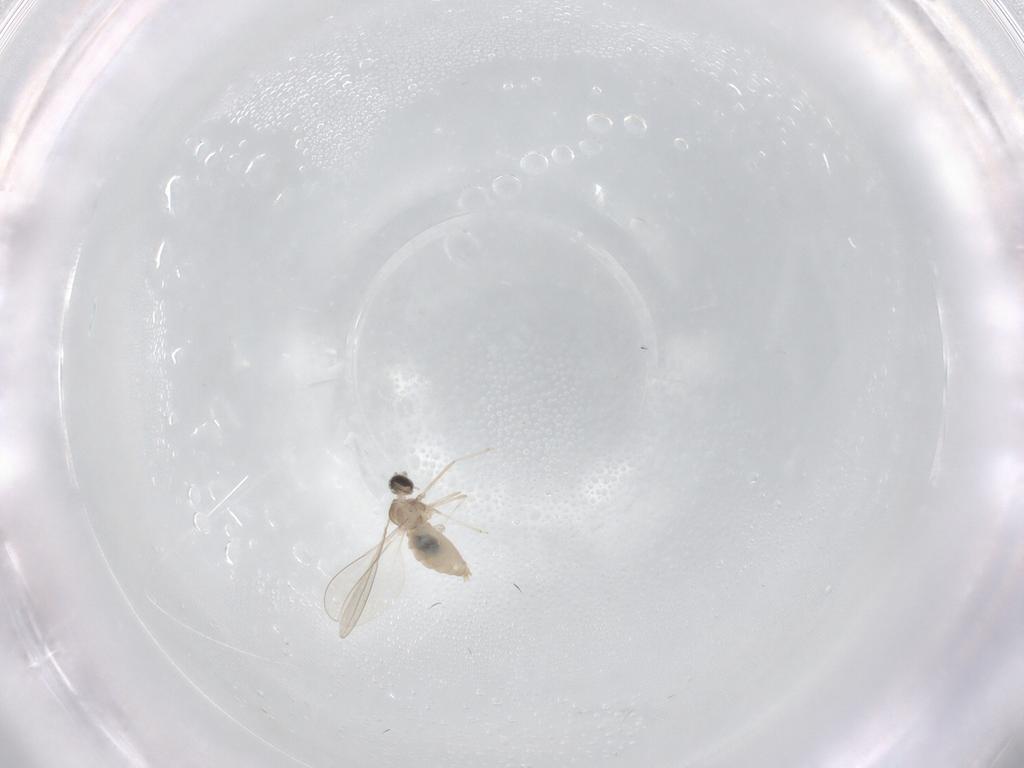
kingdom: Animalia
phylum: Arthropoda
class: Insecta
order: Diptera
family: Cecidomyiidae
